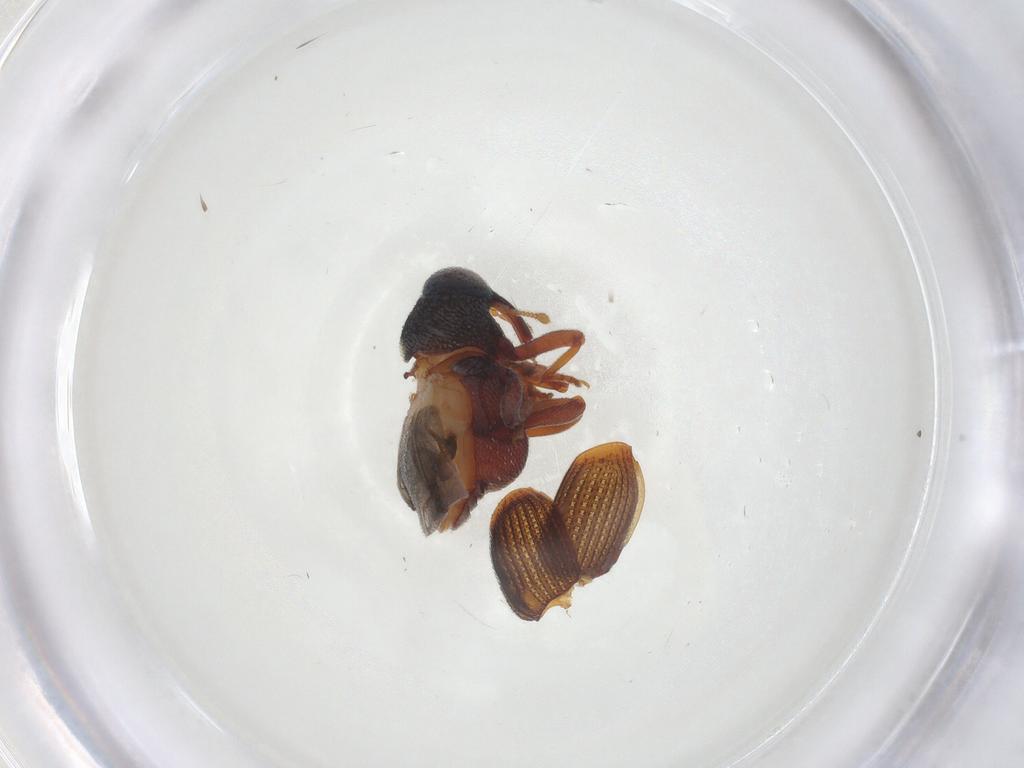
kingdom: Animalia
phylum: Arthropoda
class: Insecta
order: Coleoptera
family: Curculionidae
